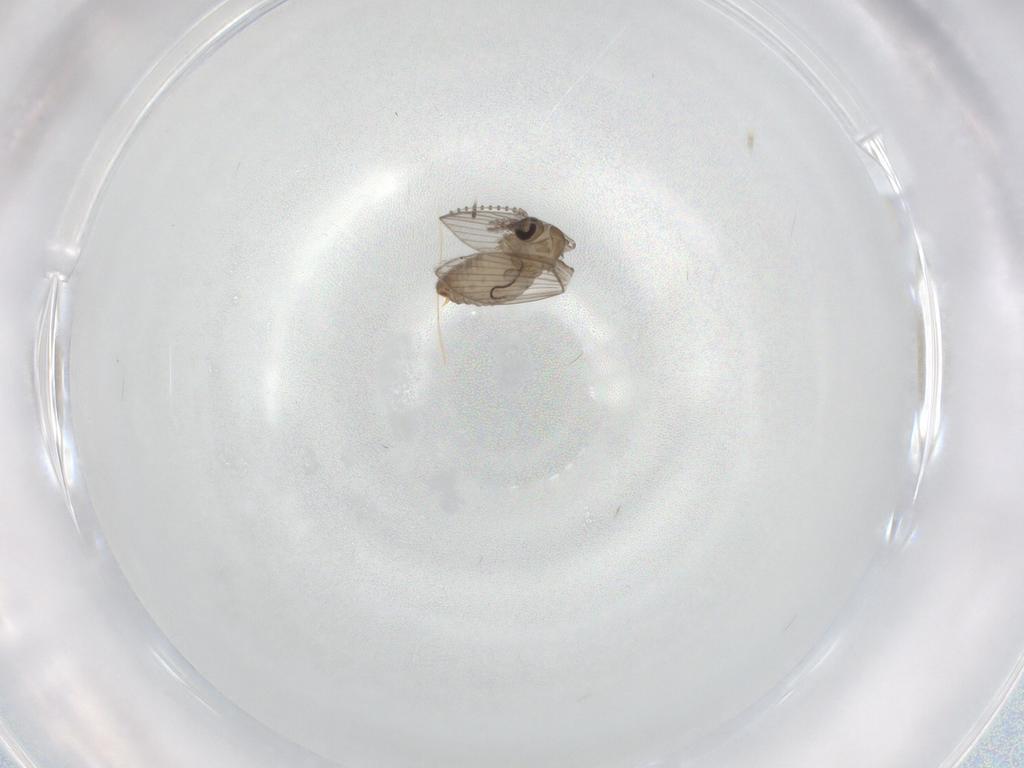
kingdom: Animalia
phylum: Arthropoda
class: Insecta
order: Diptera
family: Psychodidae
